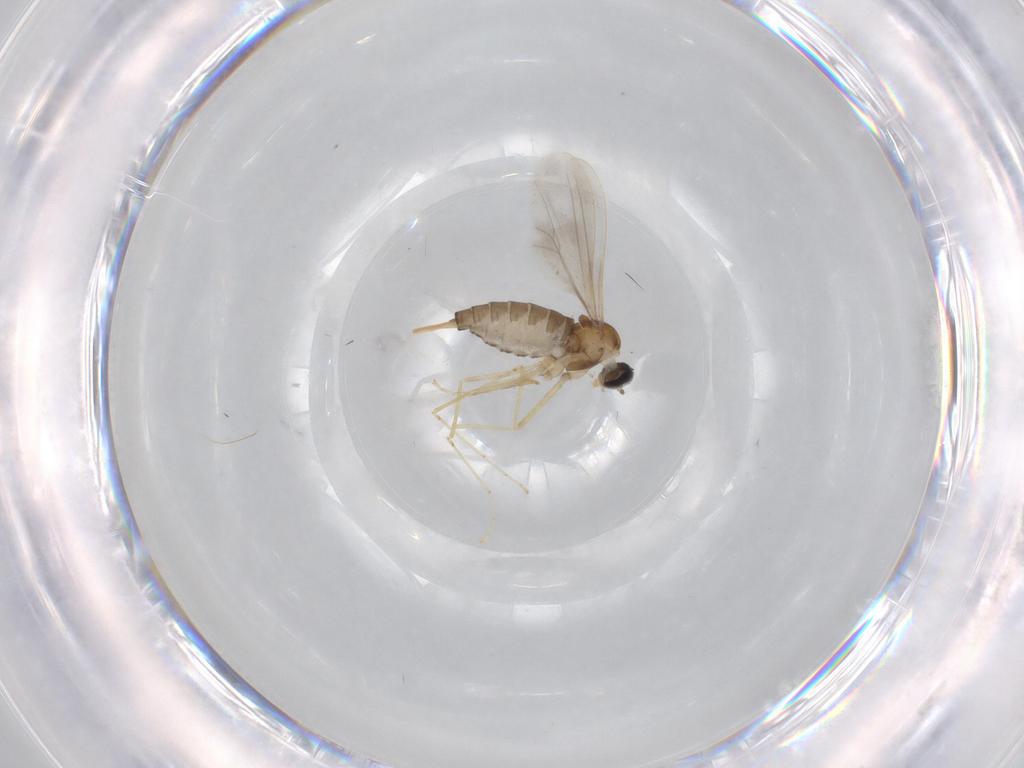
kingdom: Animalia
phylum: Arthropoda
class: Insecta
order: Diptera
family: Cecidomyiidae
